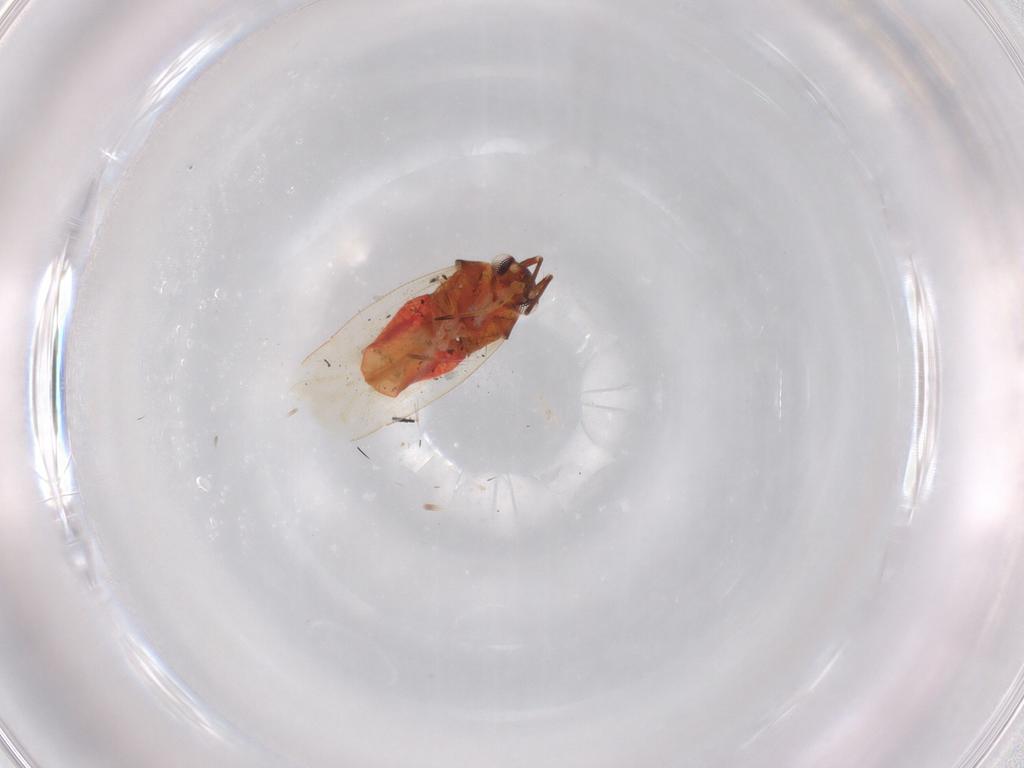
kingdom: Animalia
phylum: Arthropoda
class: Insecta
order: Hemiptera
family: Miridae
